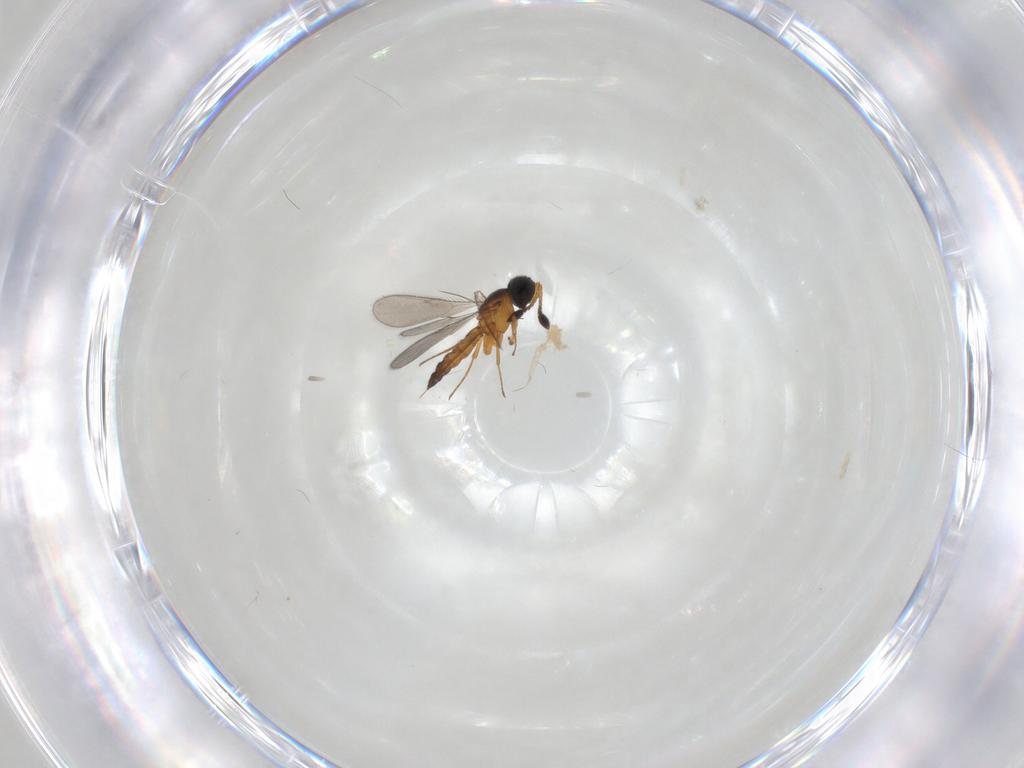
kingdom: Animalia
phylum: Arthropoda
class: Insecta
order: Hymenoptera
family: Scelionidae
